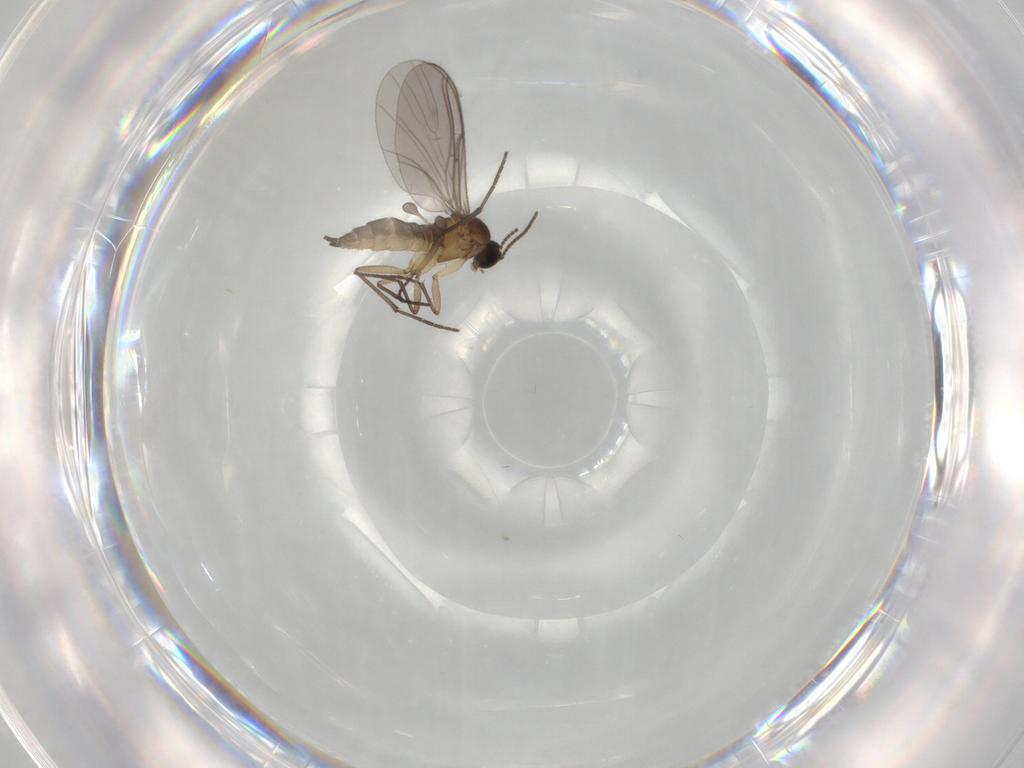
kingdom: Animalia
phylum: Arthropoda
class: Insecta
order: Diptera
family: Sciaridae
